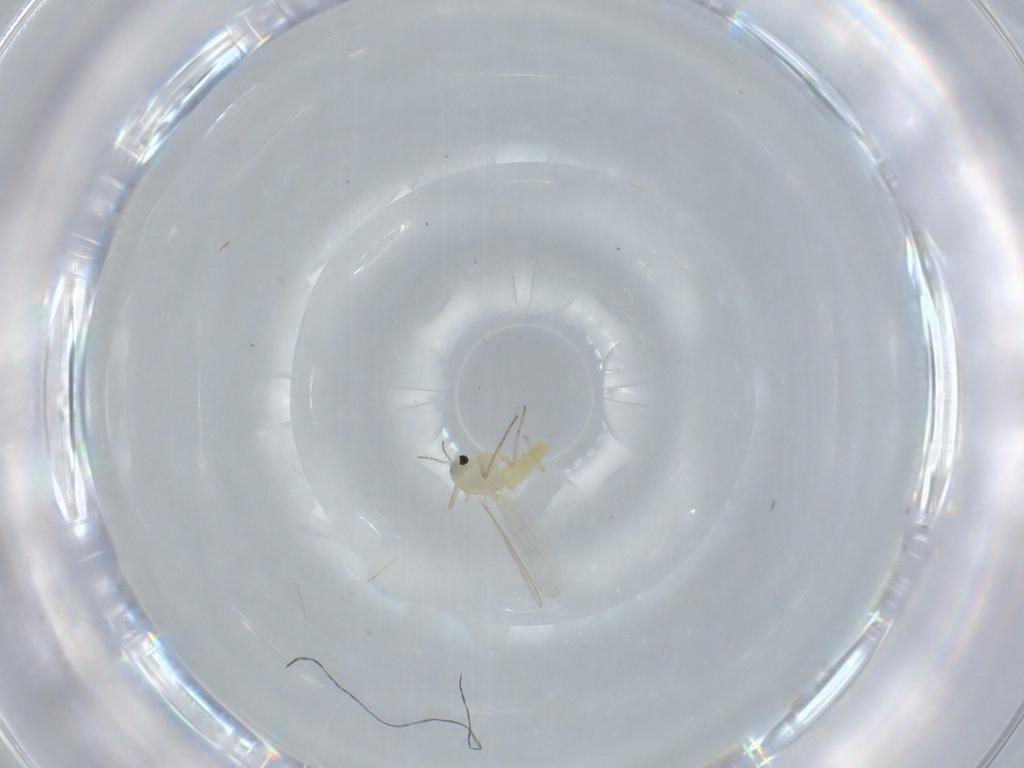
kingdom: Animalia
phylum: Arthropoda
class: Insecta
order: Diptera
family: Chironomidae
